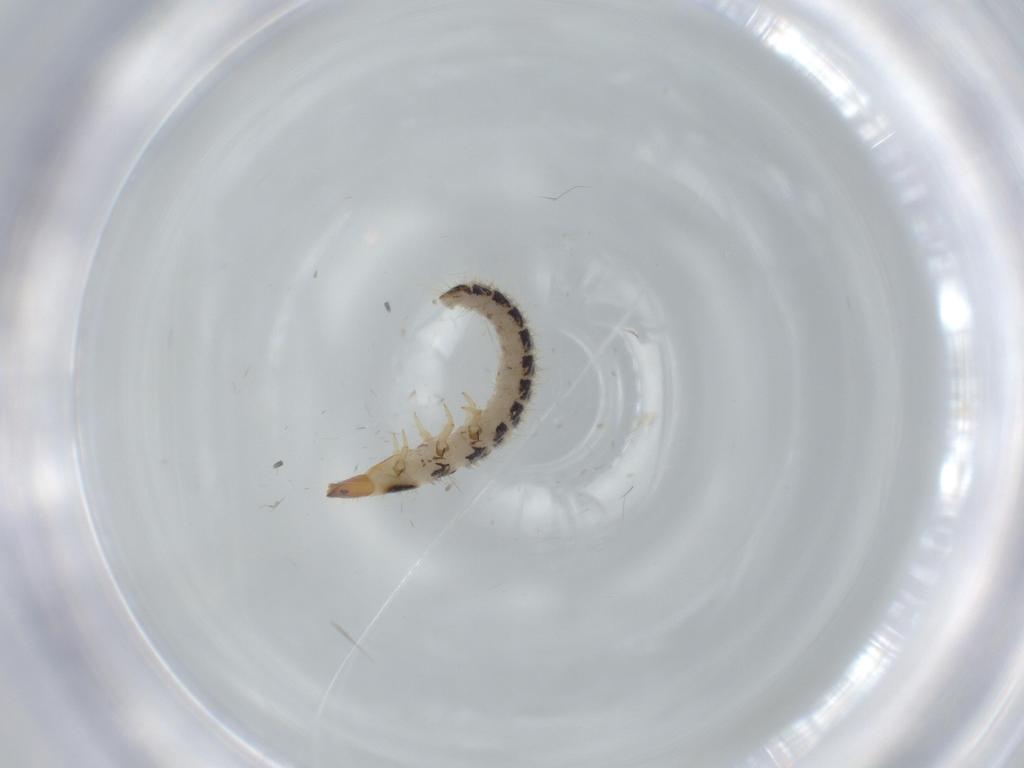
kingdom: Animalia
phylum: Arthropoda
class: Insecta
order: Coleoptera
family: Erotylidae
